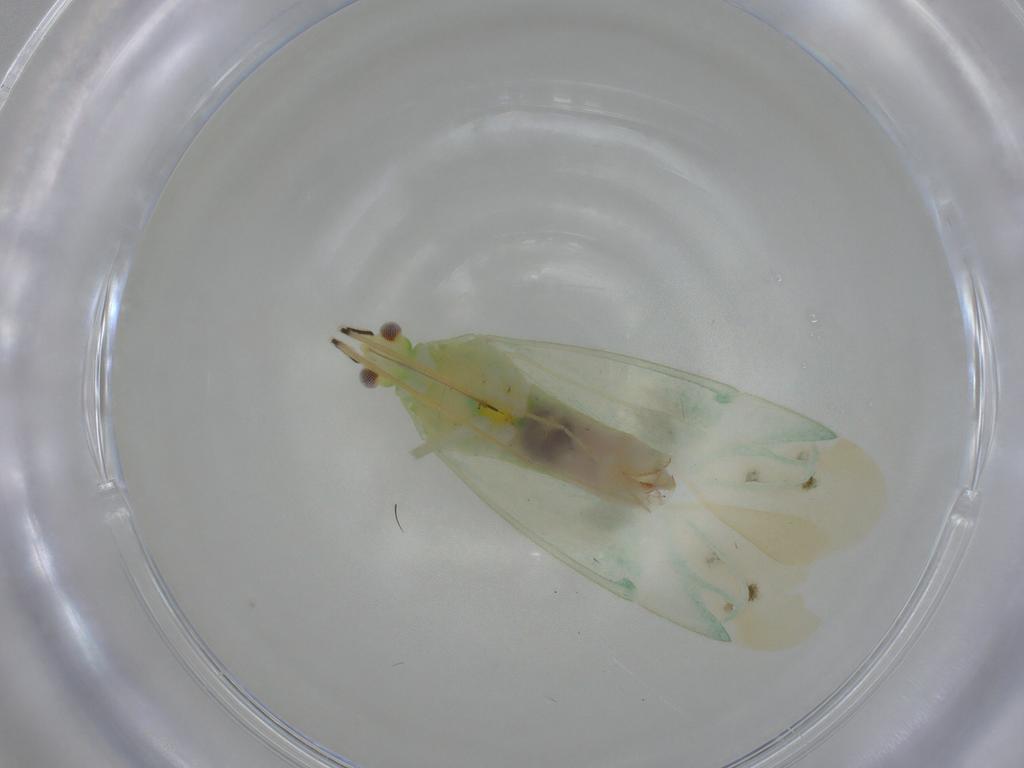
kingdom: Animalia
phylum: Arthropoda
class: Insecta
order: Hemiptera
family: Miridae
